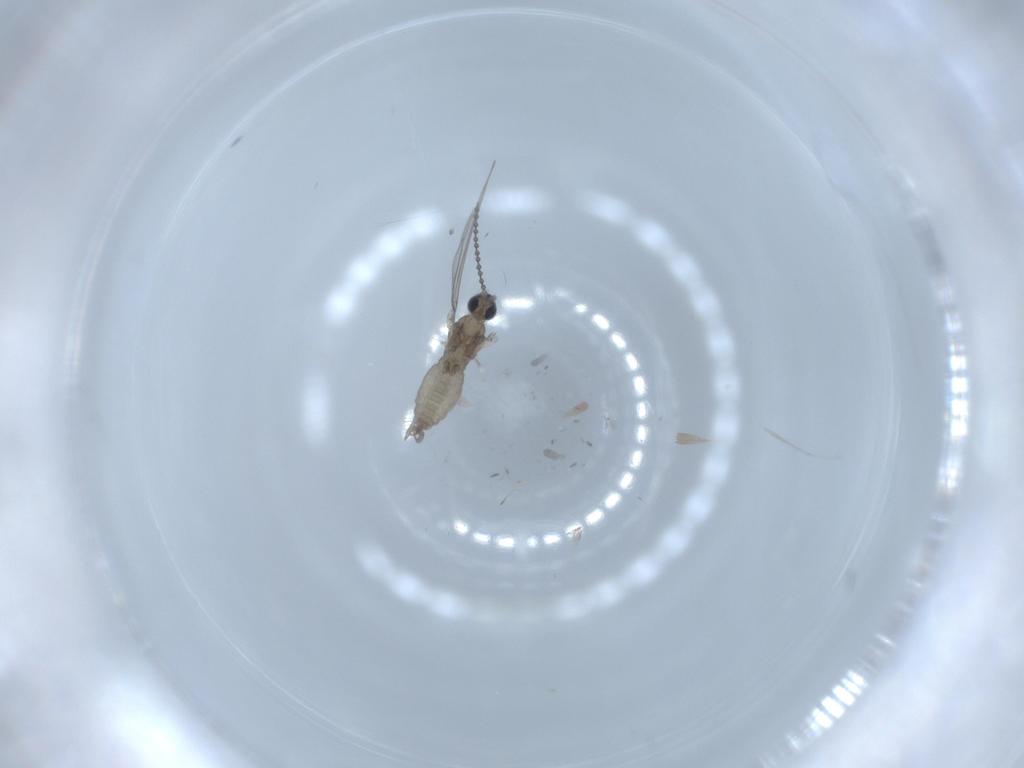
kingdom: Animalia
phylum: Arthropoda
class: Insecta
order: Diptera
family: Cecidomyiidae
